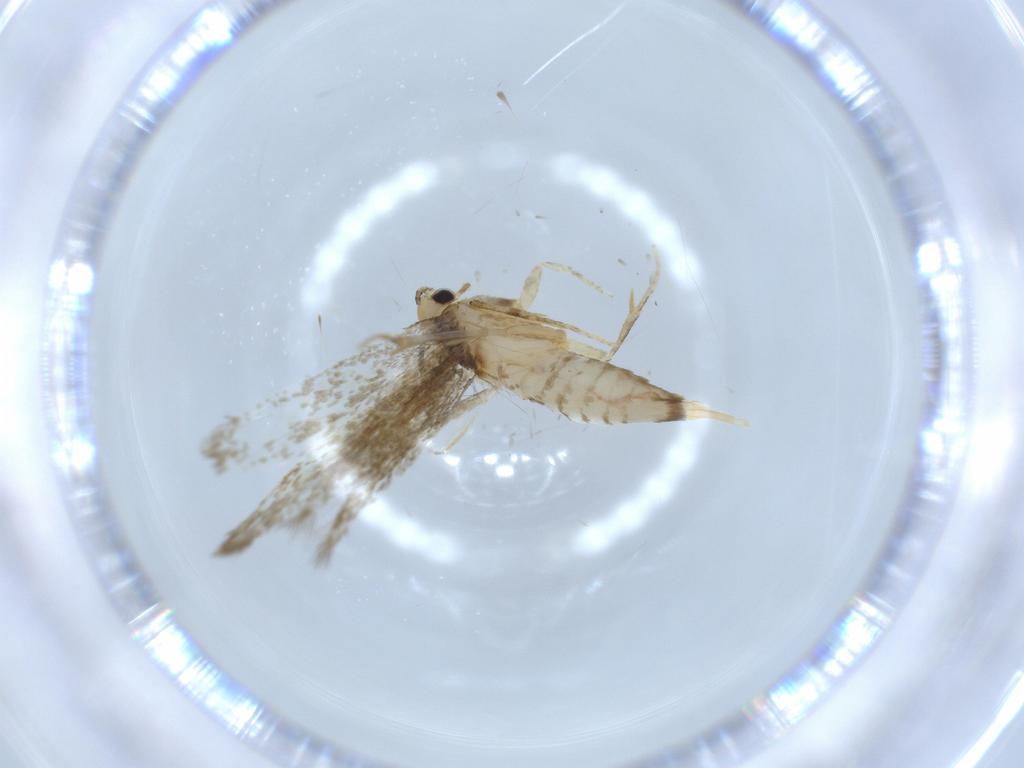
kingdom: Animalia
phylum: Arthropoda
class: Insecta
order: Lepidoptera
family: Tineidae
